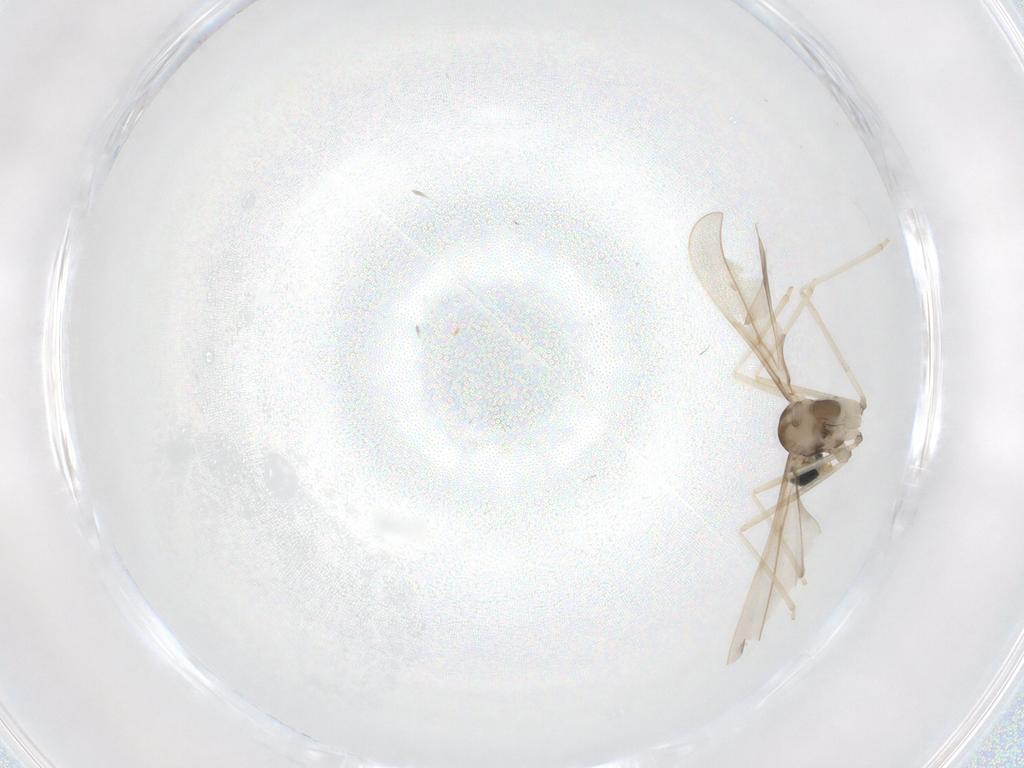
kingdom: Animalia
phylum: Arthropoda
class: Insecta
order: Diptera
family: Cecidomyiidae
